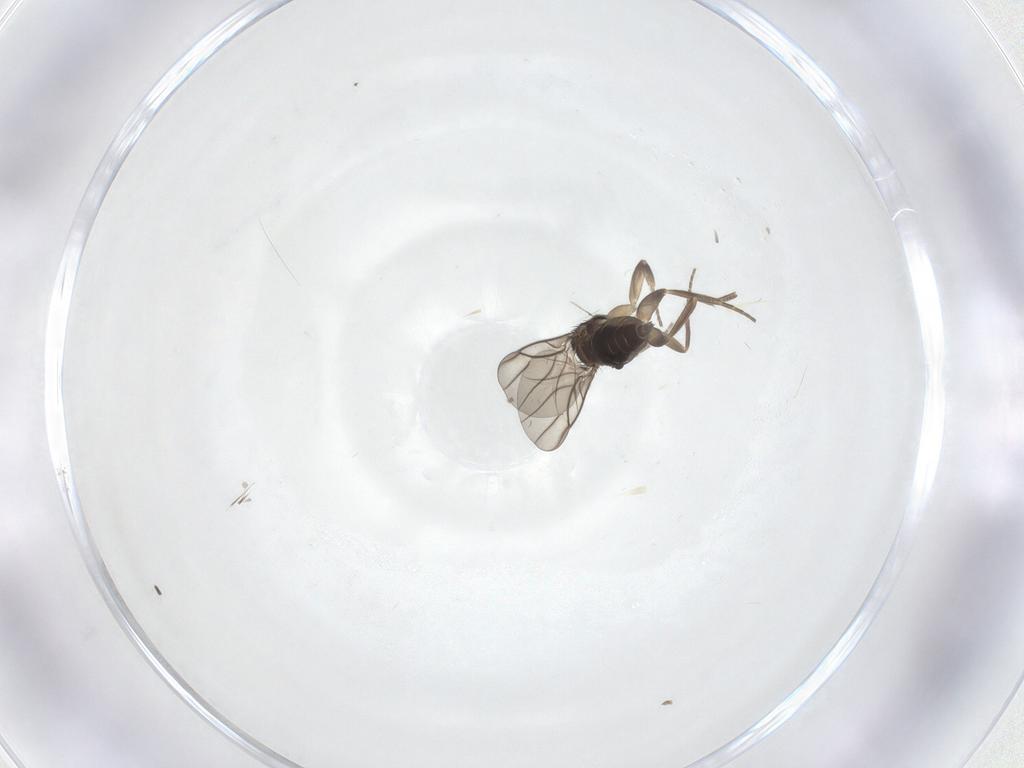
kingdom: Animalia
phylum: Arthropoda
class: Insecta
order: Diptera
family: Phoridae
